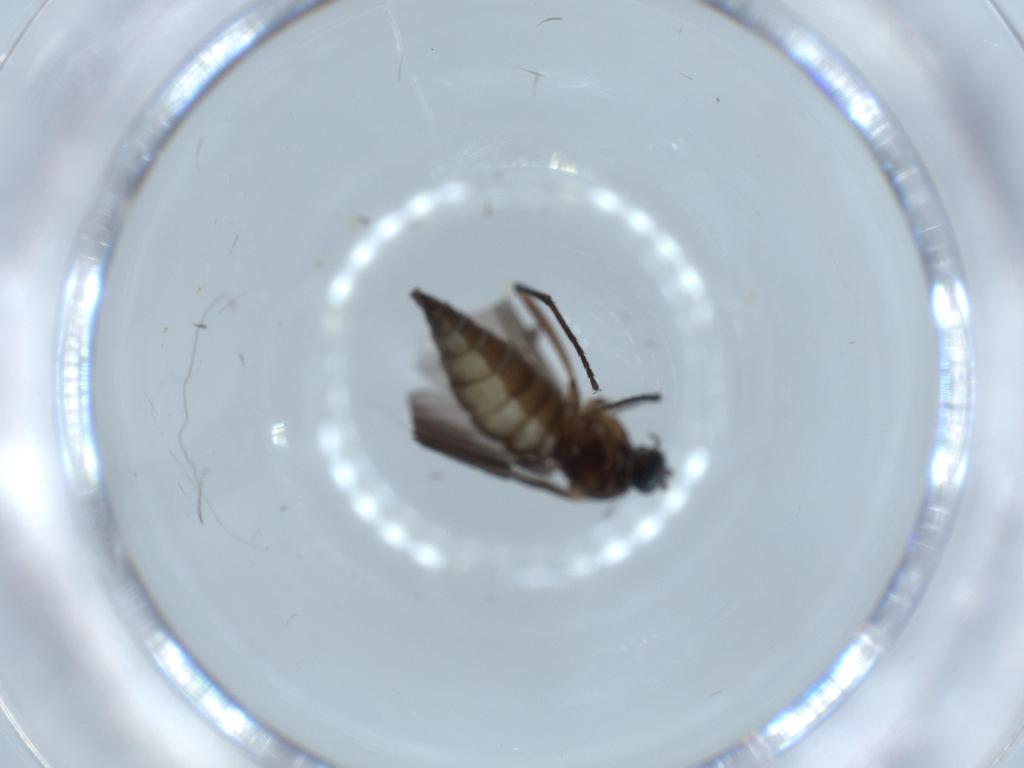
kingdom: Animalia
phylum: Arthropoda
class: Insecta
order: Diptera
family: Sciaridae
